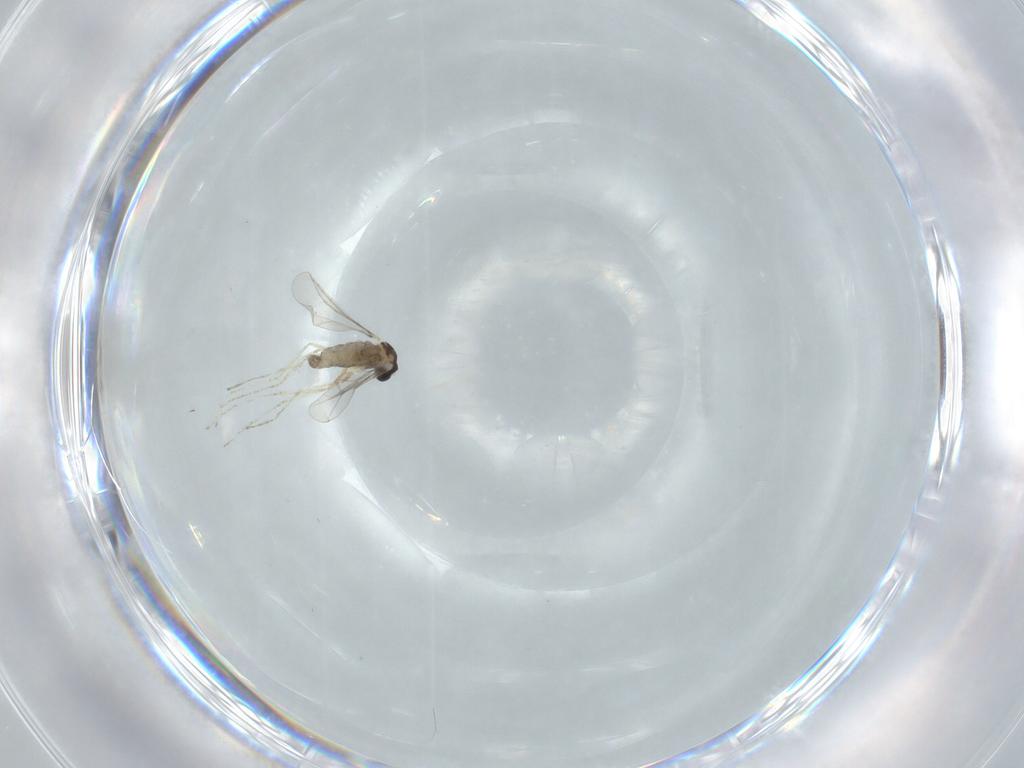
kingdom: Animalia
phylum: Arthropoda
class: Insecta
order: Diptera
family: Cecidomyiidae
